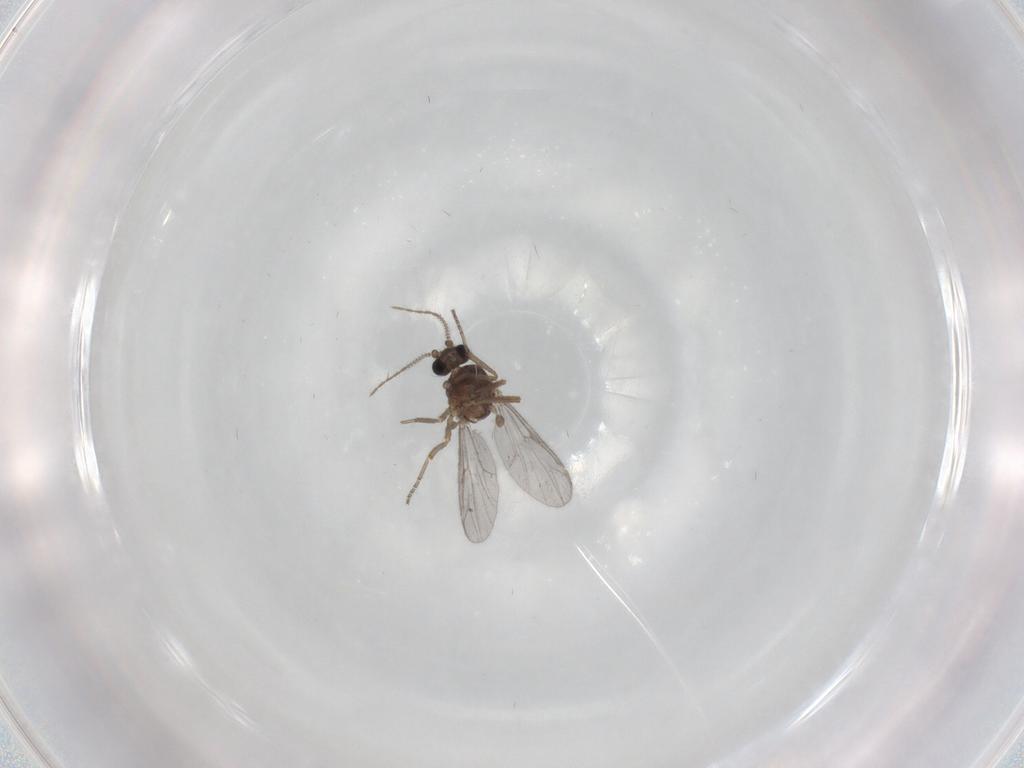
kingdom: Animalia
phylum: Arthropoda
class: Insecta
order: Diptera
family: Ceratopogonidae
